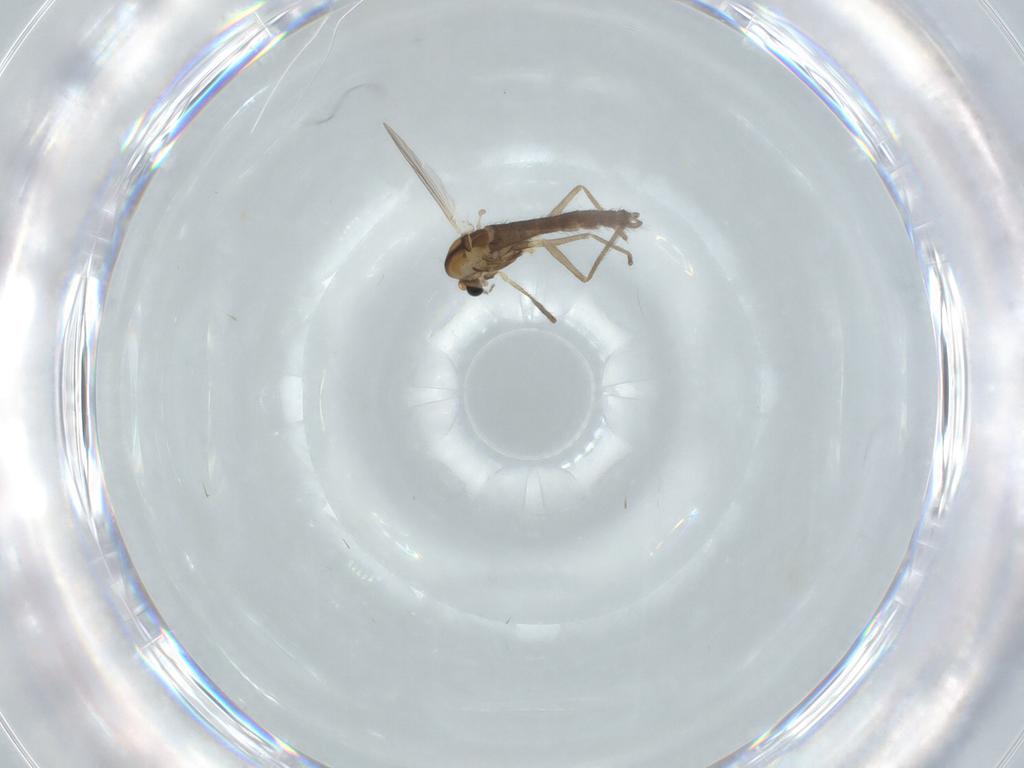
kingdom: Animalia
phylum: Arthropoda
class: Insecta
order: Diptera
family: Chironomidae
